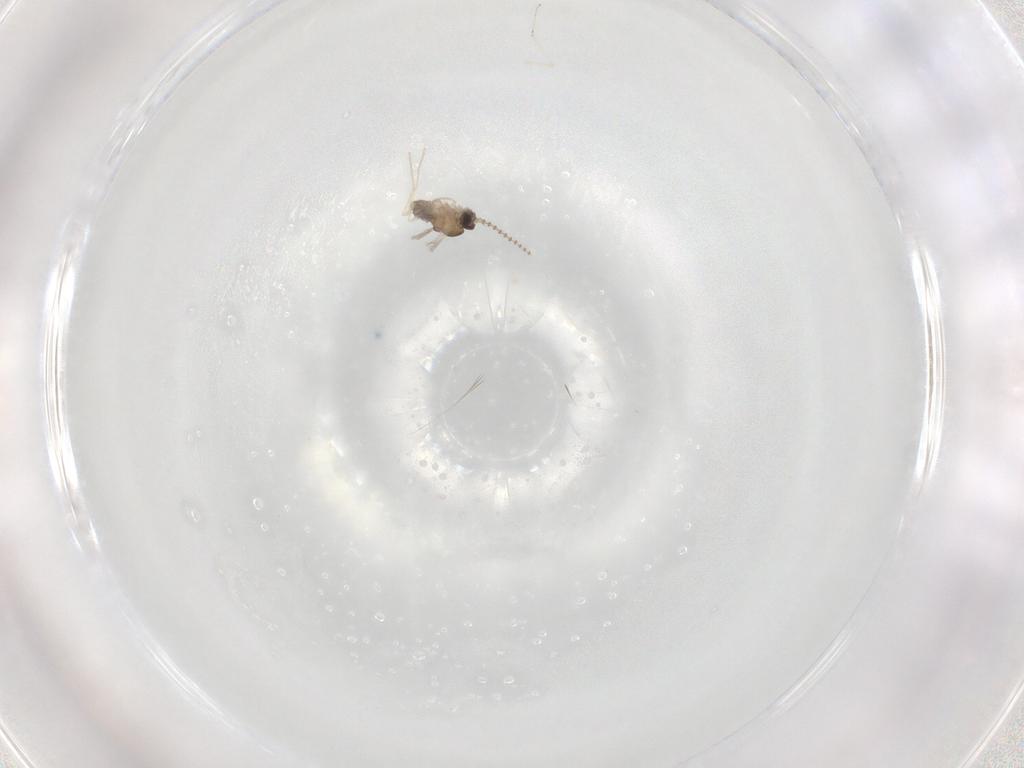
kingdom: Animalia
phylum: Arthropoda
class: Insecta
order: Diptera
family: Cecidomyiidae
